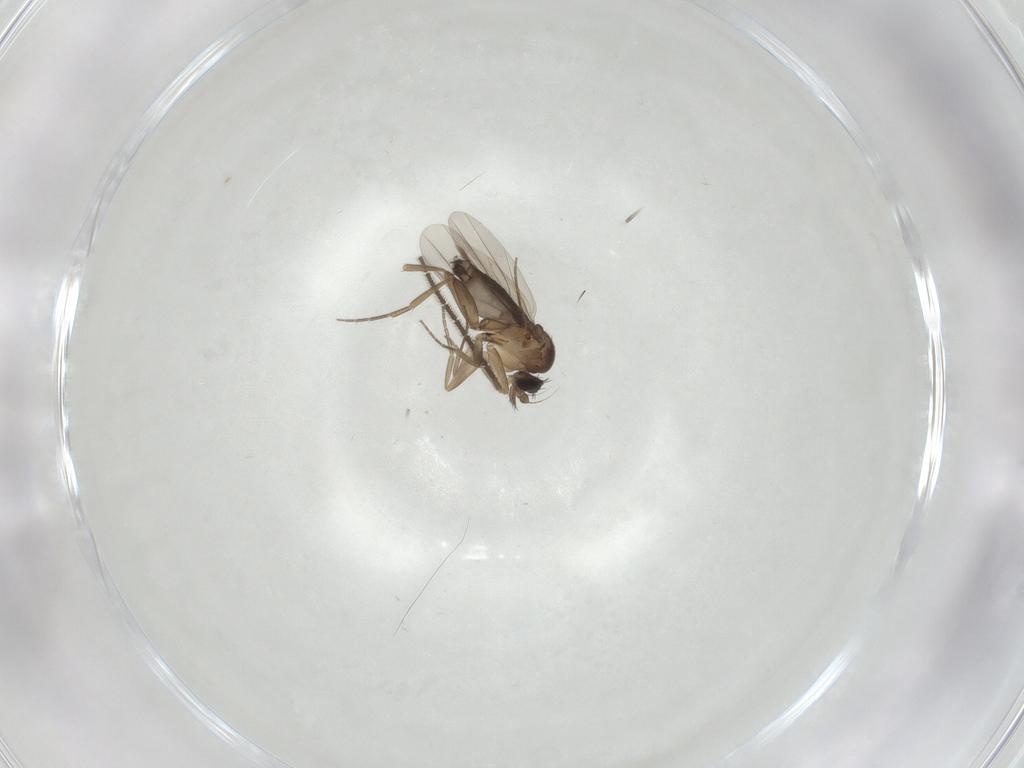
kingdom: Animalia
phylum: Arthropoda
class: Insecta
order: Diptera
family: Phoridae
